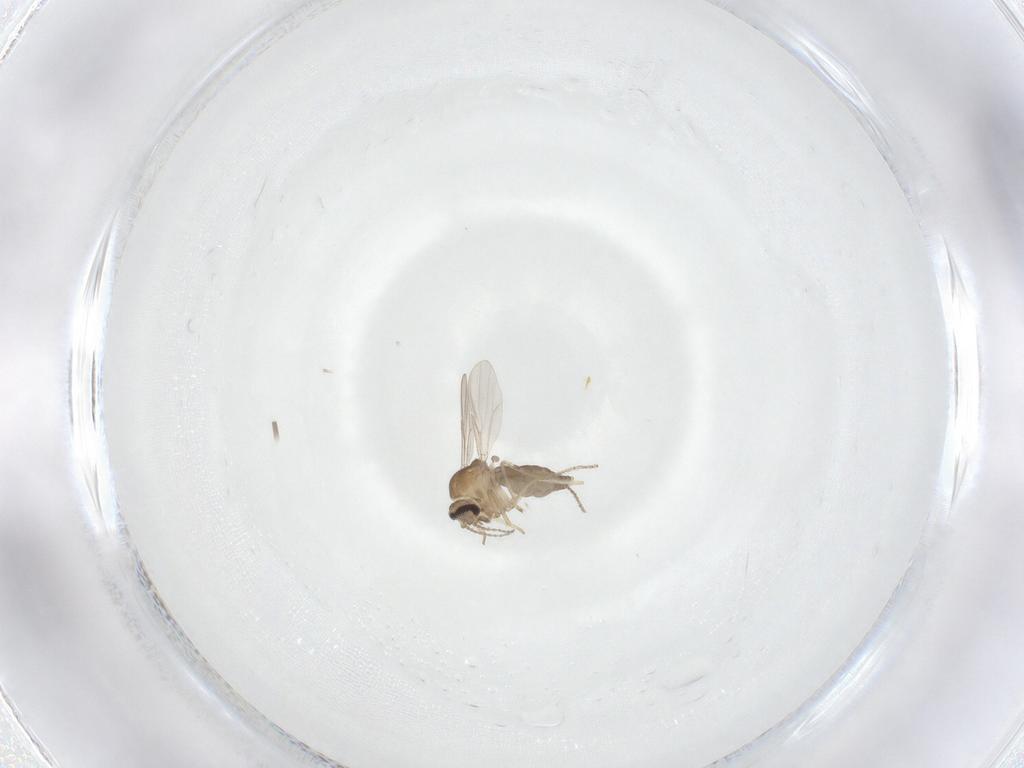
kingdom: Animalia
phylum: Arthropoda
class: Insecta
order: Diptera
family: Ceratopogonidae
